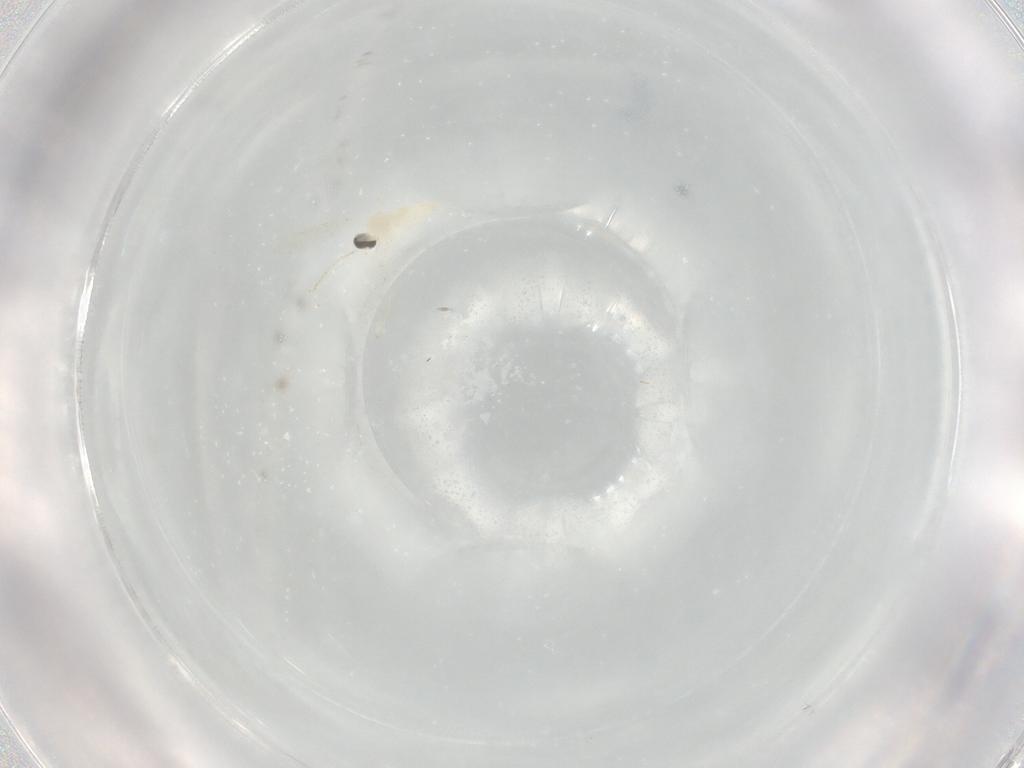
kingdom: Animalia
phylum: Arthropoda
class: Insecta
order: Diptera
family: Cecidomyiidae
